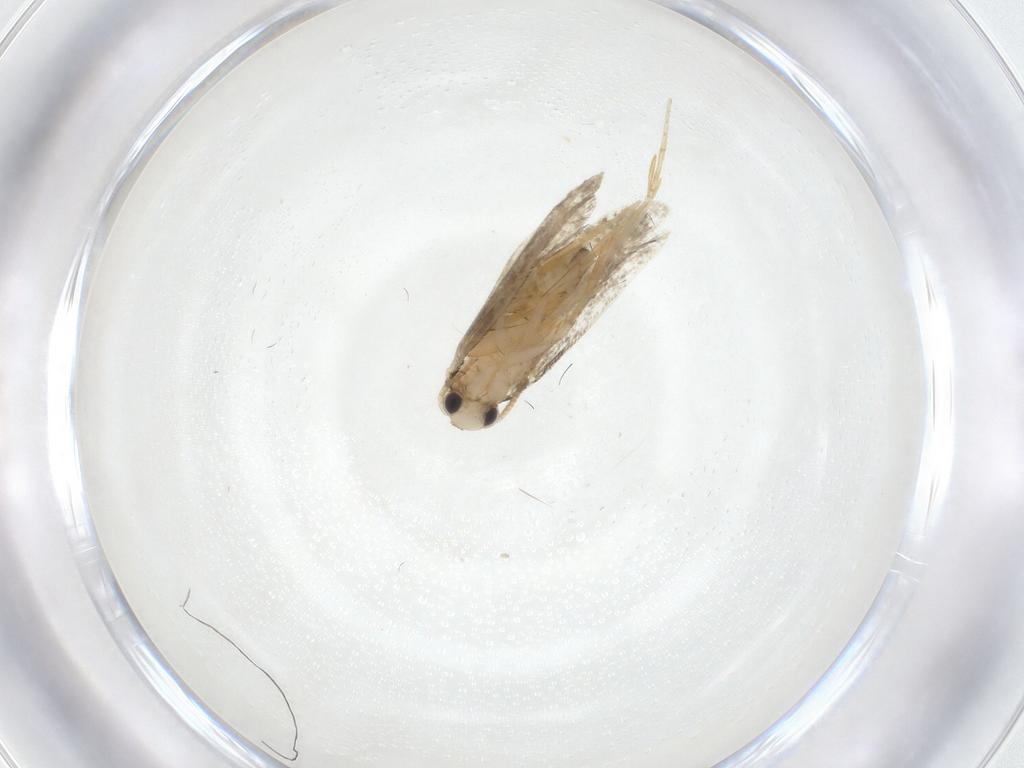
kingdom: Animalia
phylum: Arthropoda
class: Insecta
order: Lepidoptera
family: Psychidae
